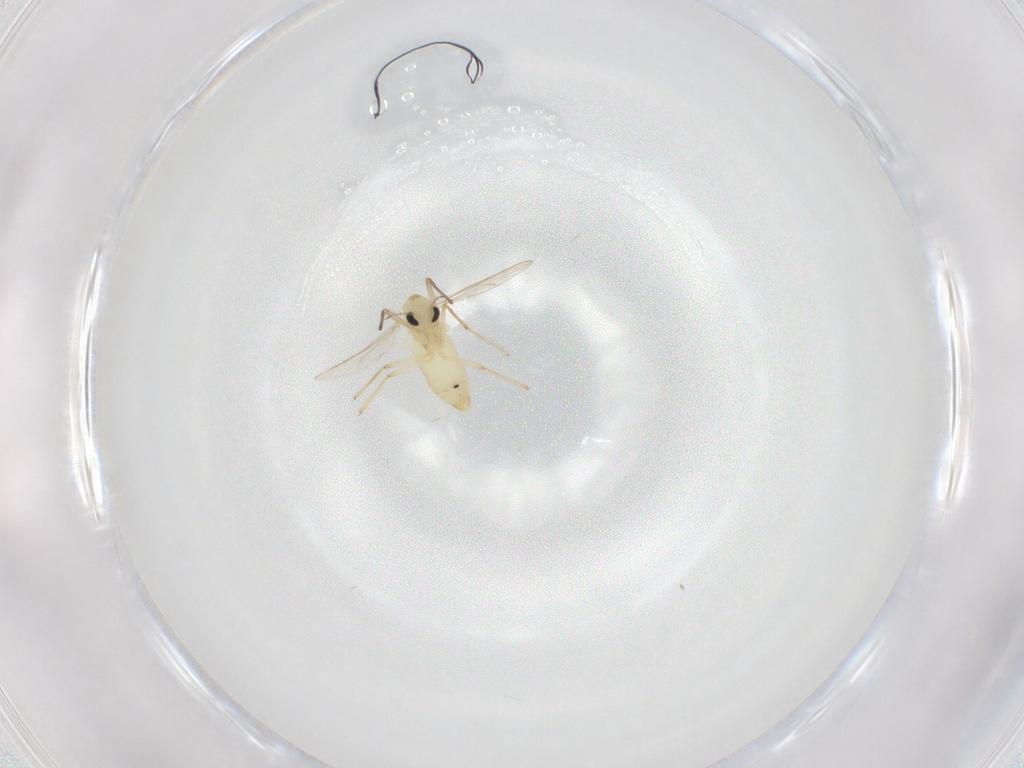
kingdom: Animalia
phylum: Arthropoda
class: Insecta
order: Diptera
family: Chironomidae
